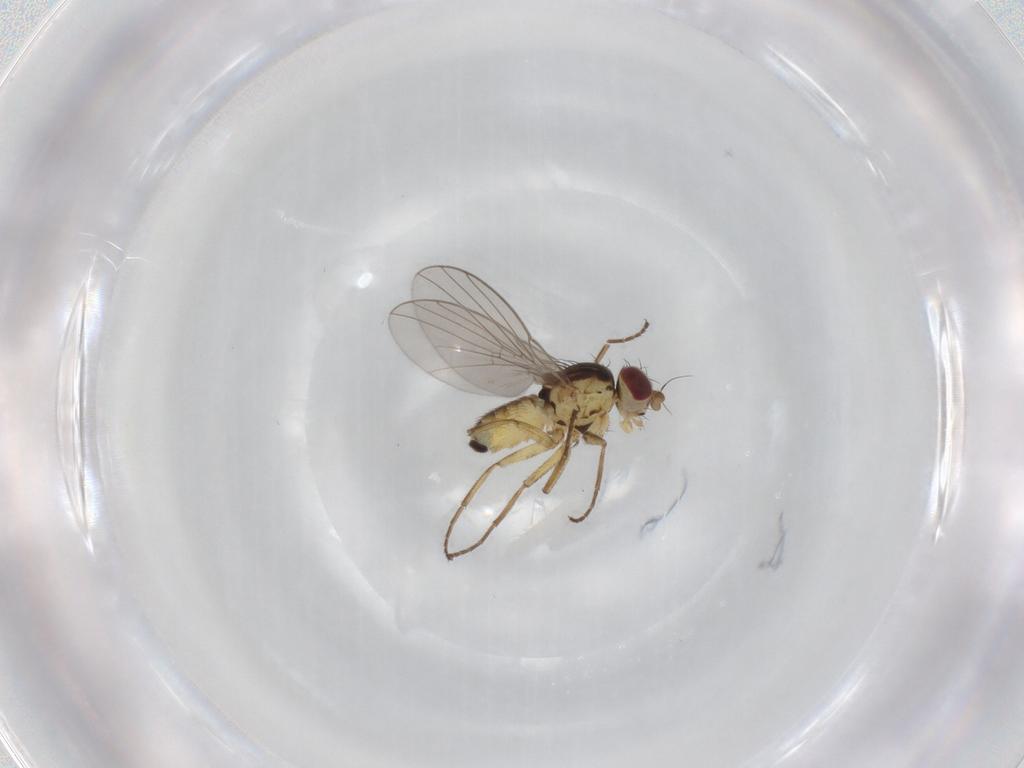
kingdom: Animalia
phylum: Arthropoda
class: Insecta
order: Diptera
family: Agromyzidae
